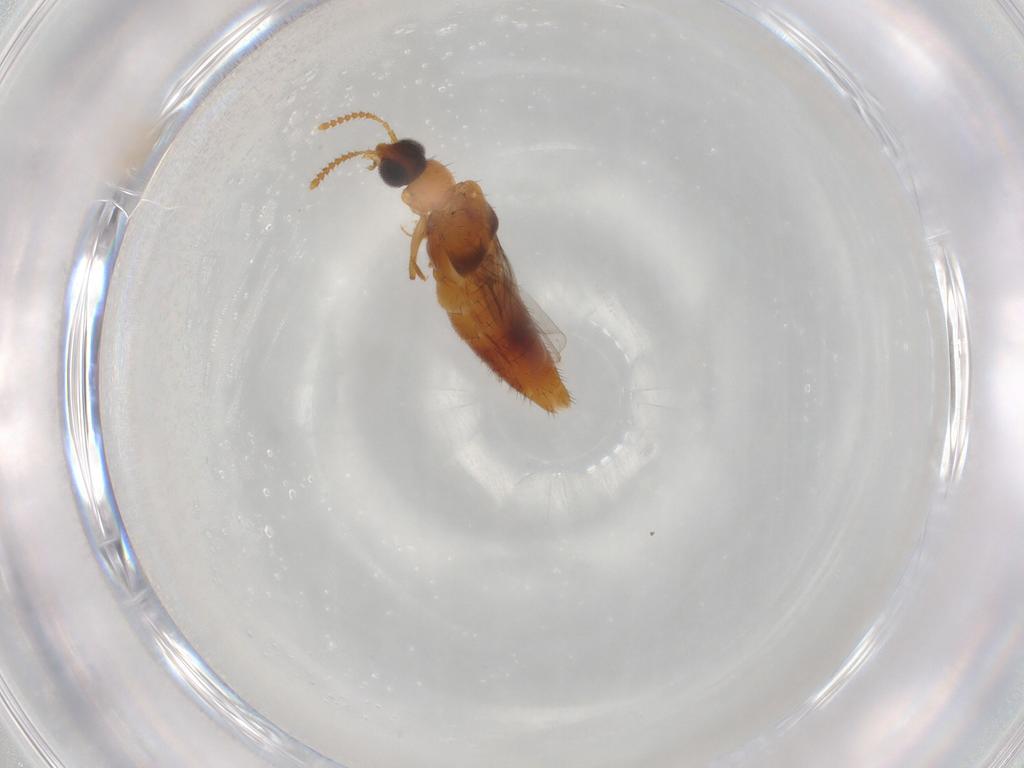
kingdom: Animalia
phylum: Arthropoda
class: Insecta
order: Coleoptera
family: Staphylinidae
